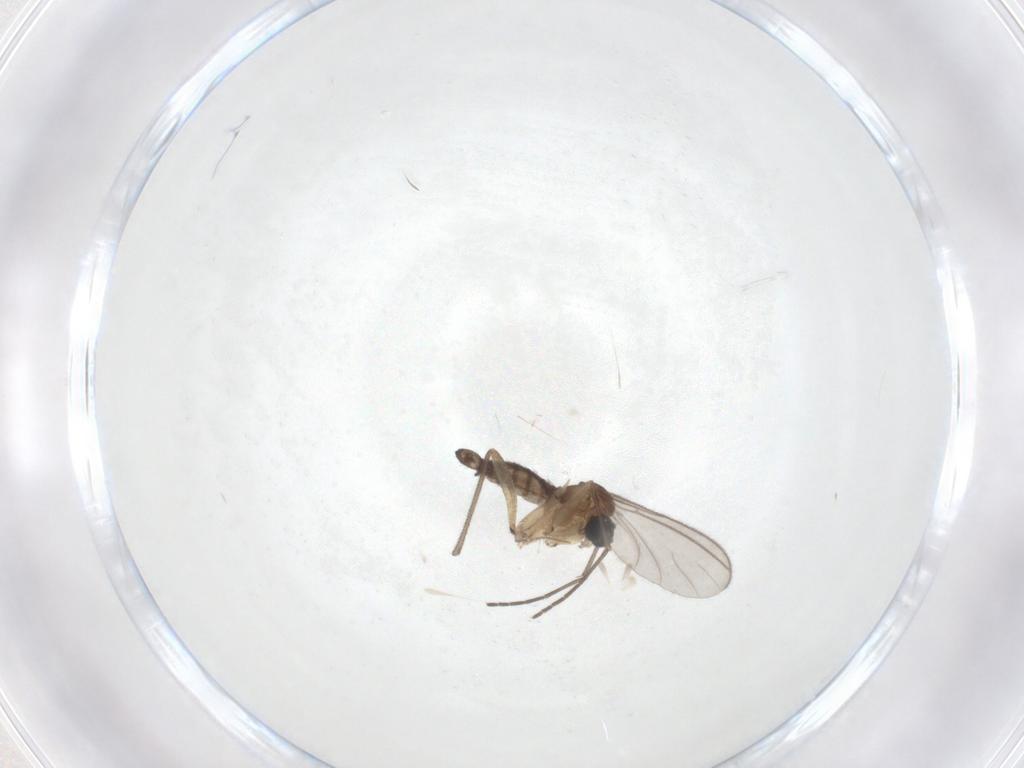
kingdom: Animalia
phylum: Arthropoda
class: Insecta
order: Diptera
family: Sciaridae
